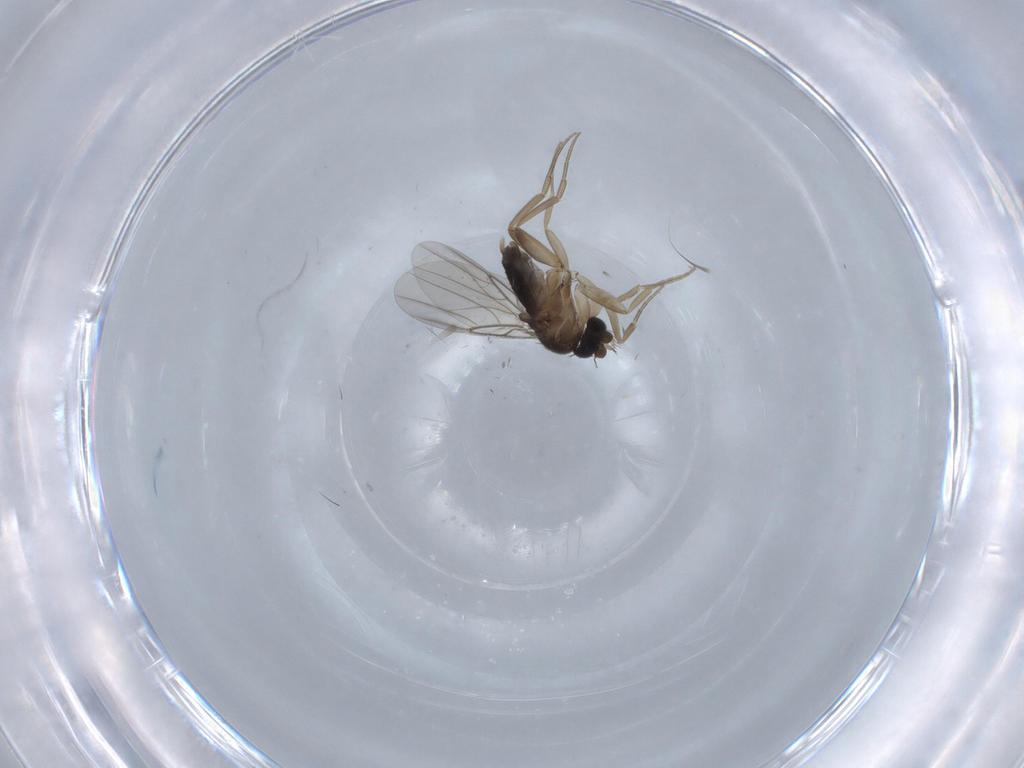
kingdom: Animalia
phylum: Arthropoda
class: Insecta
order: Diptera
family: Phoridae
